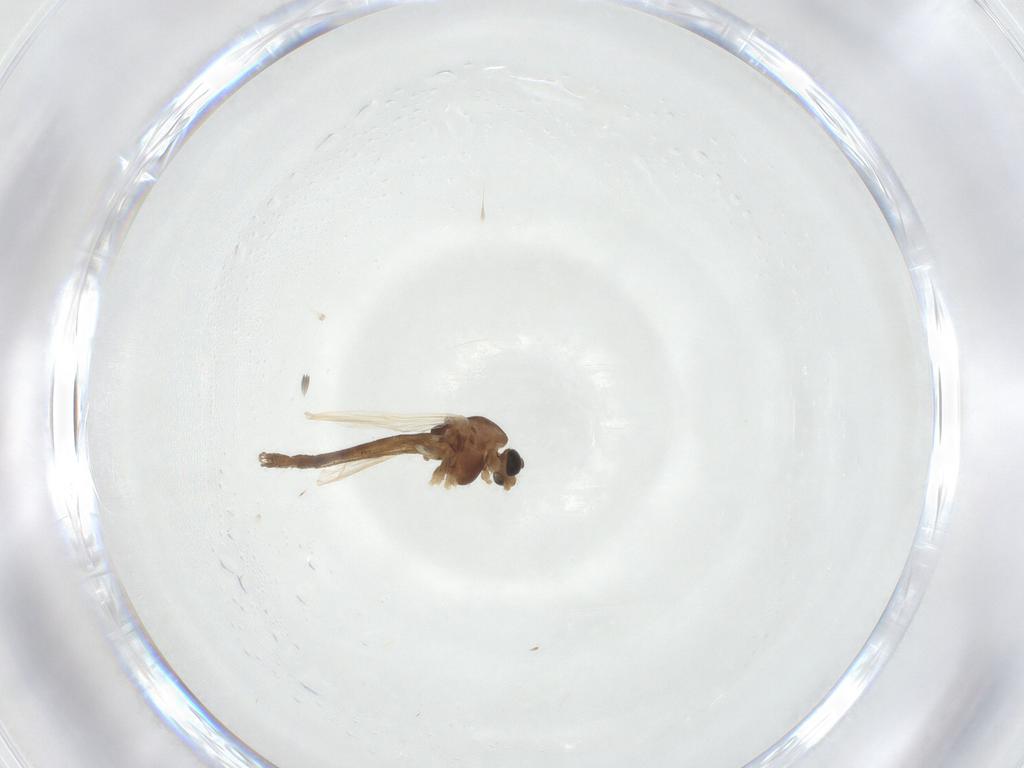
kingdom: Animalia
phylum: Arthropoda
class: Insecta
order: Diptera
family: Chironomidae
